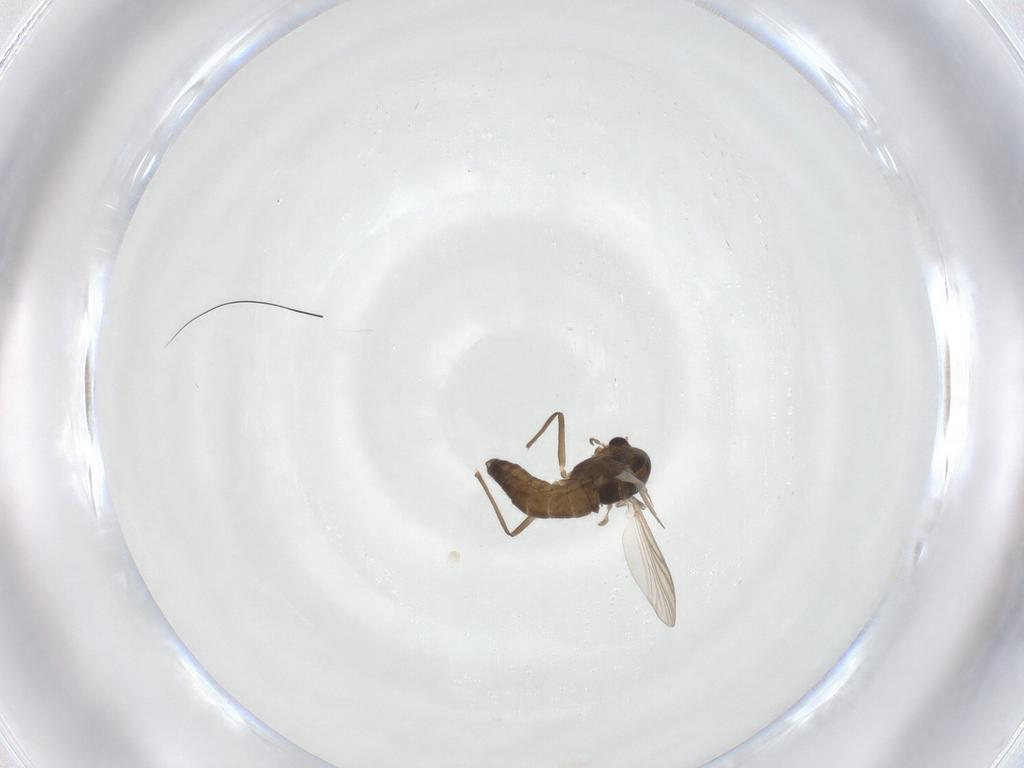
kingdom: Animalia
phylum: Arthropoda
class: Insecta
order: Diptera
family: Chironomidae
